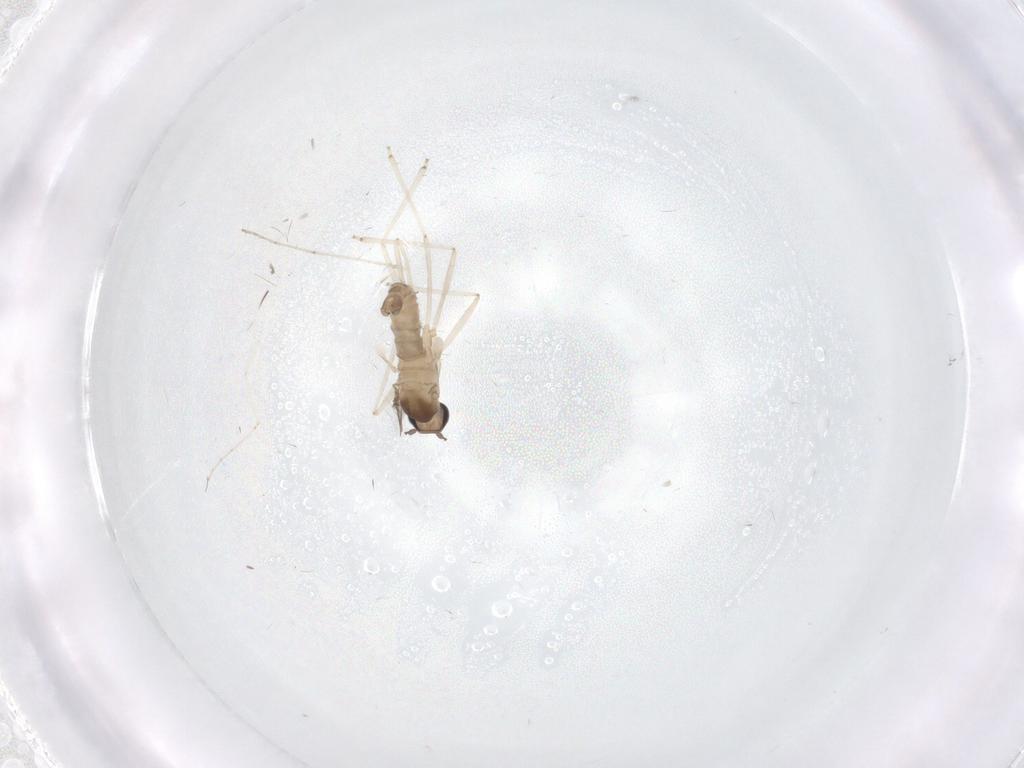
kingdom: Animalia
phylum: Arthropoda
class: Insecta
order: Diptera
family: Cecidomyiidae
